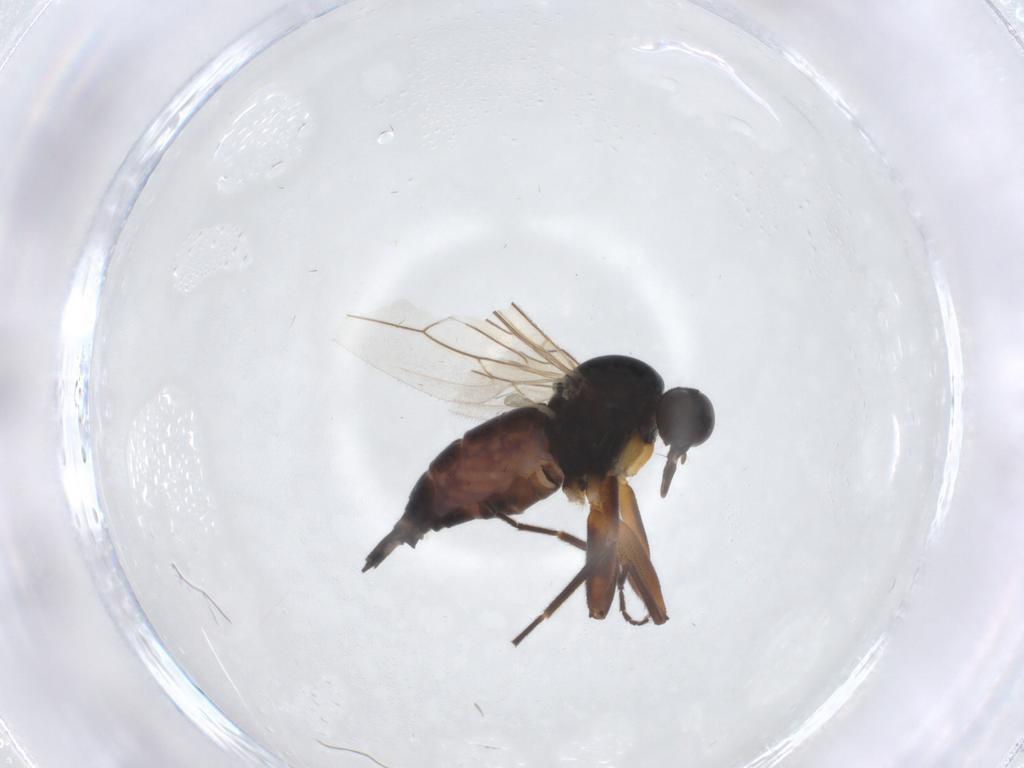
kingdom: Animalia
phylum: Arthropoda
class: Insecta
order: Diptera
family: Hybotidae
